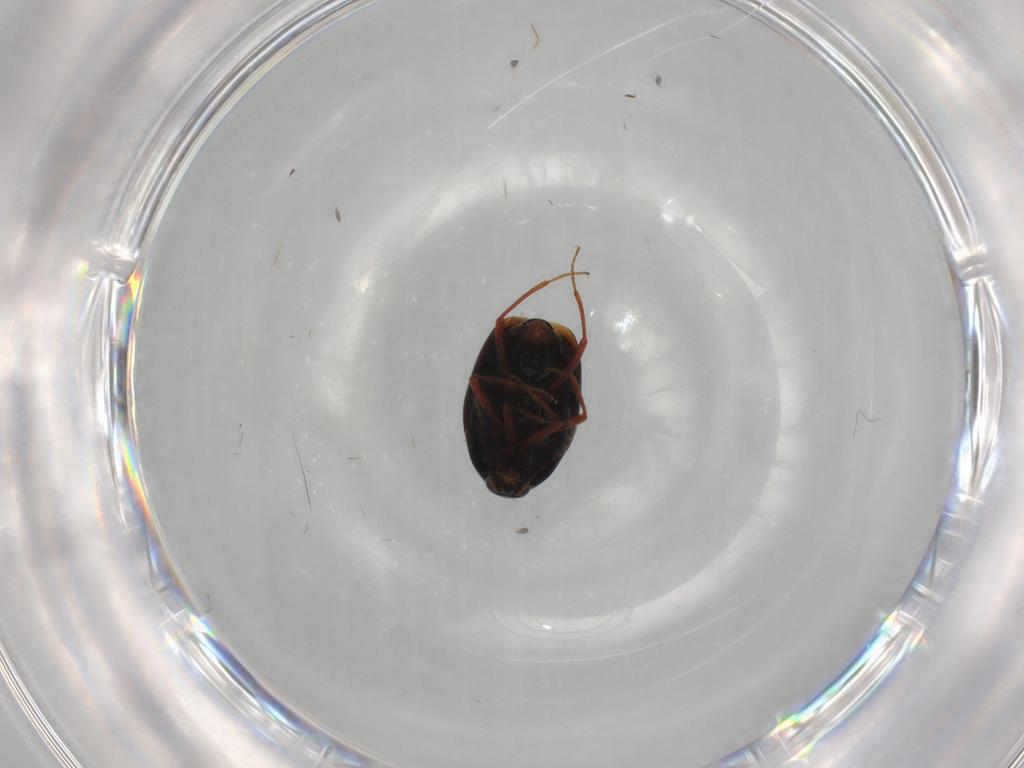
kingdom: Animalia
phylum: Arthropoda
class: Insecta
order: Coleoptera
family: Staphylinidae
